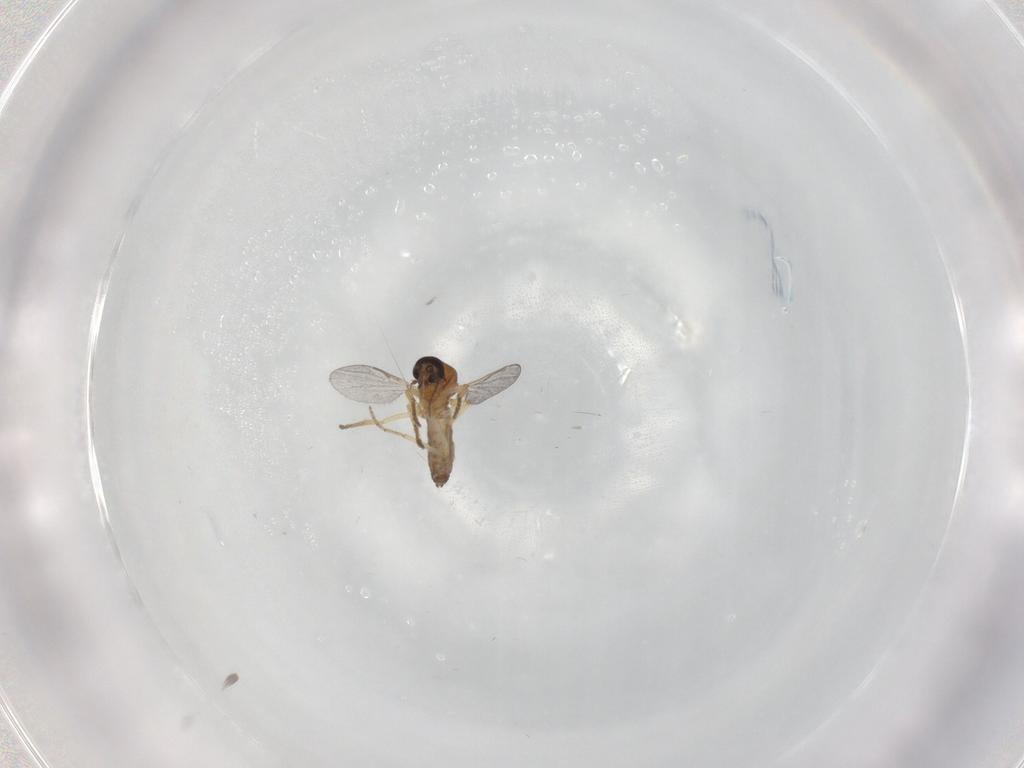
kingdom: Animalia
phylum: Arthropoda
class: Insecta
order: Diptera
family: Ceratopogonidae
